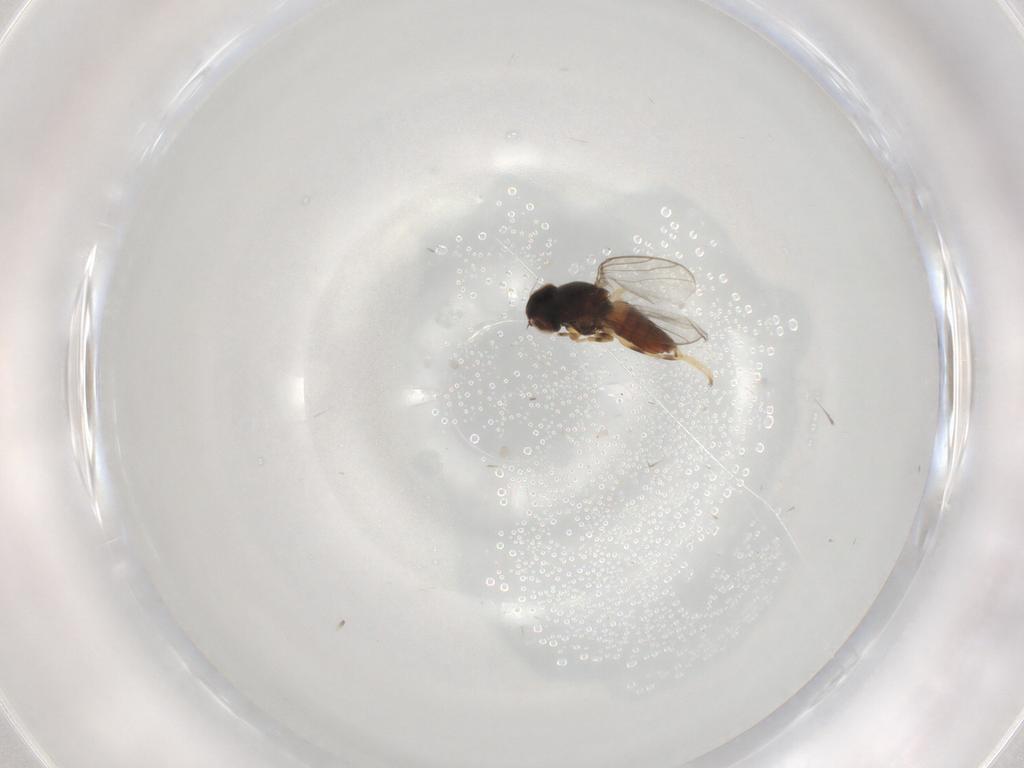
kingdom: Animalia
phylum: Arthropoda
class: Insecta
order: Diptera
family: Chloropidae
